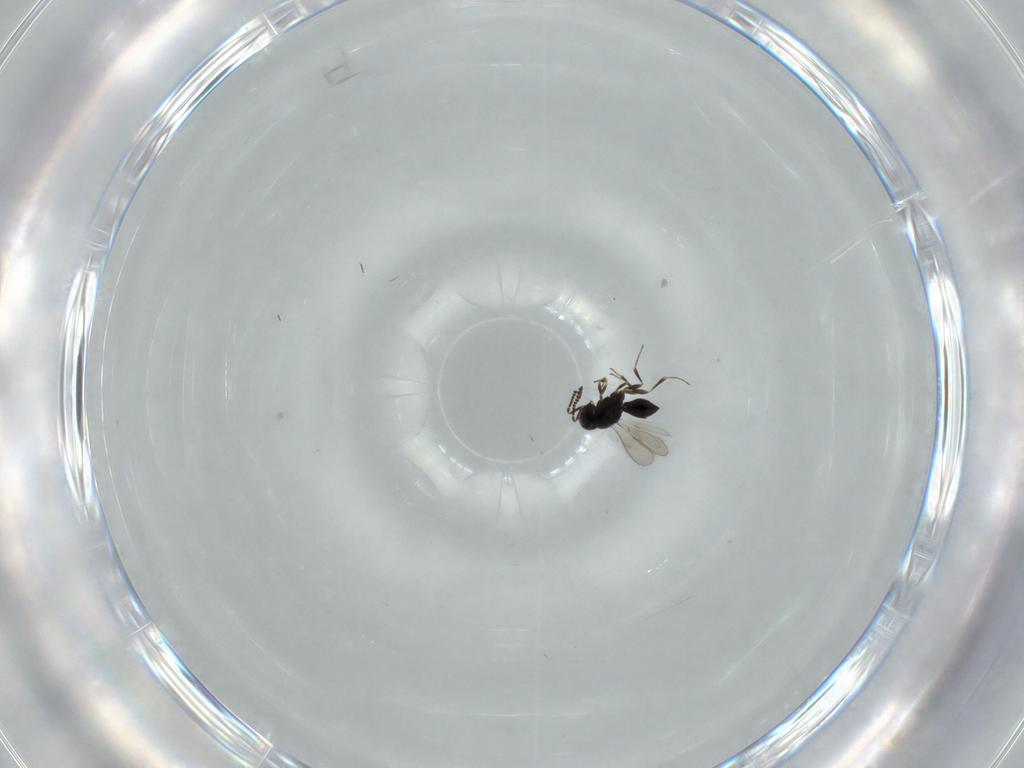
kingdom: Animalia
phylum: Arthropoda
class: Insecta
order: Hymenoptera
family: Scelionidae
